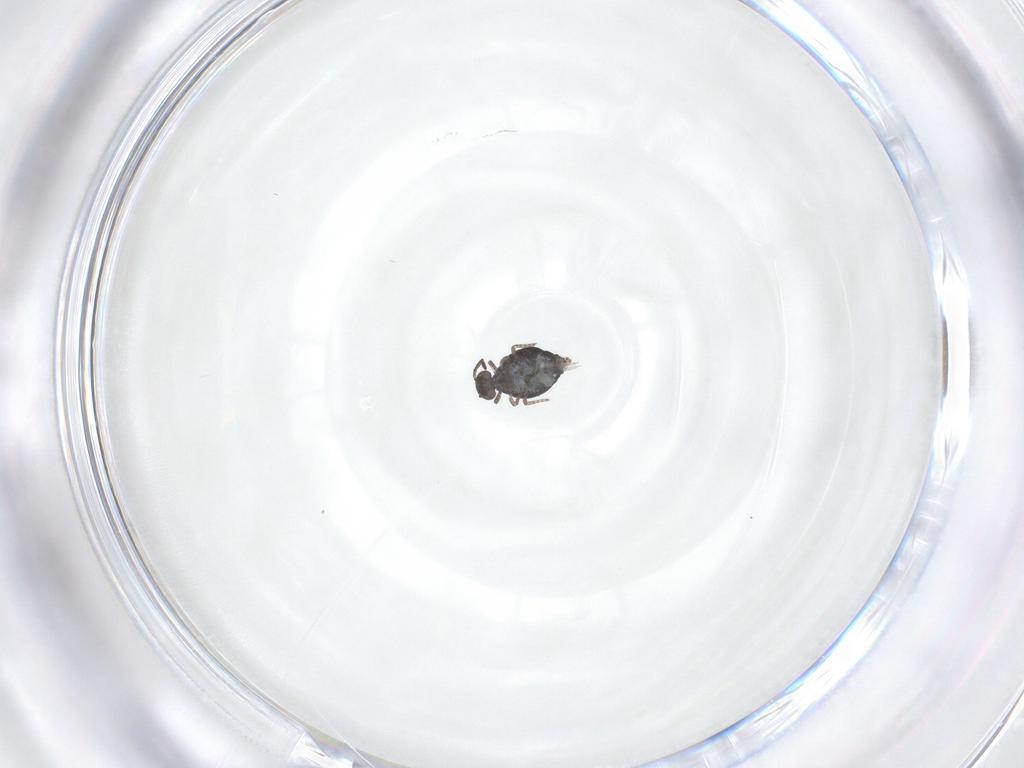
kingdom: Animalia
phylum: Arthropoda
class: Collembola
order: Symphypleona
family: Katiannidae
